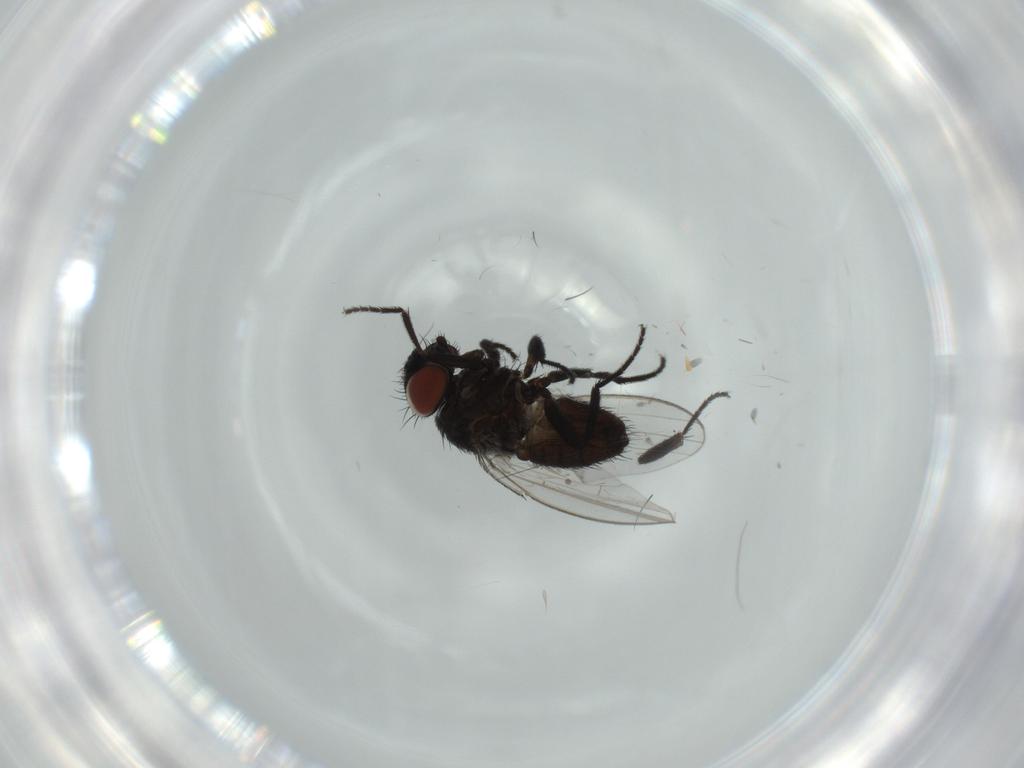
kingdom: Animalia
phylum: Arthropoda
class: Insecta
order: Diptera
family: Milichiidae
